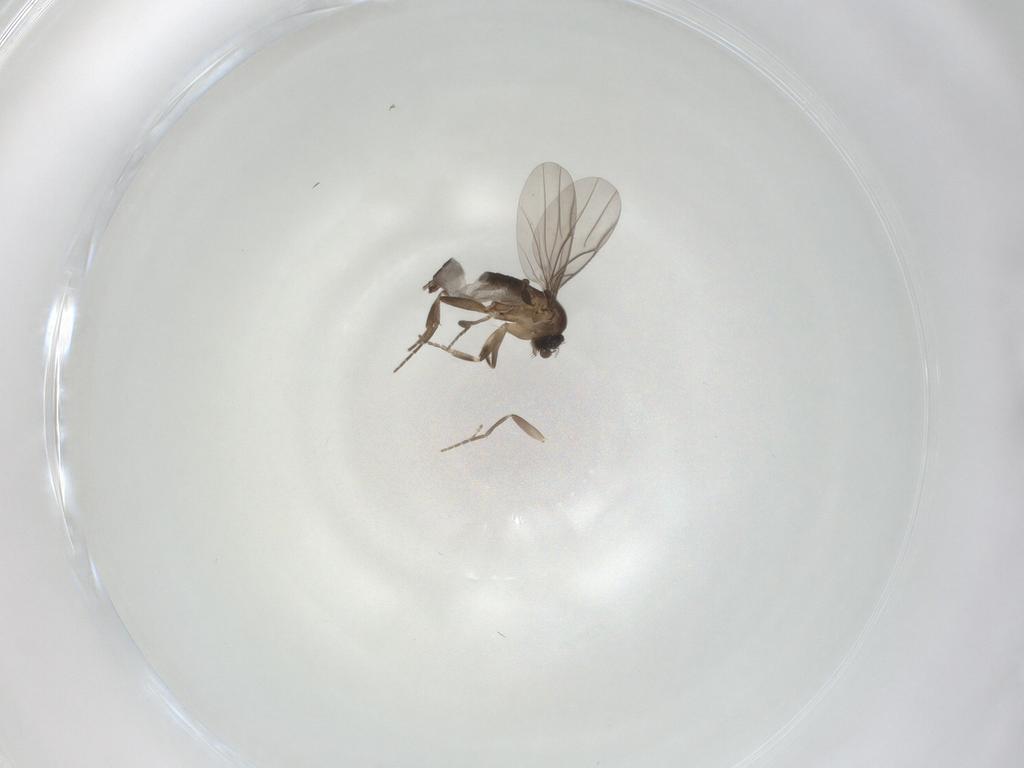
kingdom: Animalia
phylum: Arthropoda
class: Insecta
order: Diptera
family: Cecidomyiidae
